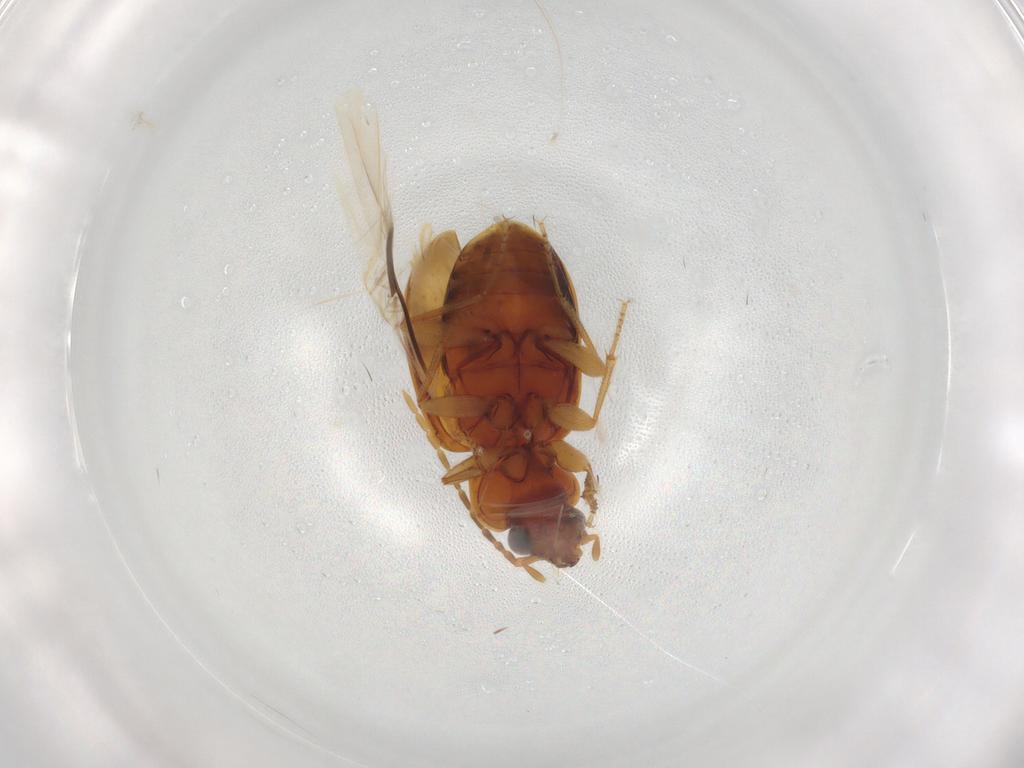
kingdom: Animalia
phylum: Arthropoda
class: Insecta
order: Coleoptera
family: Carabidae
